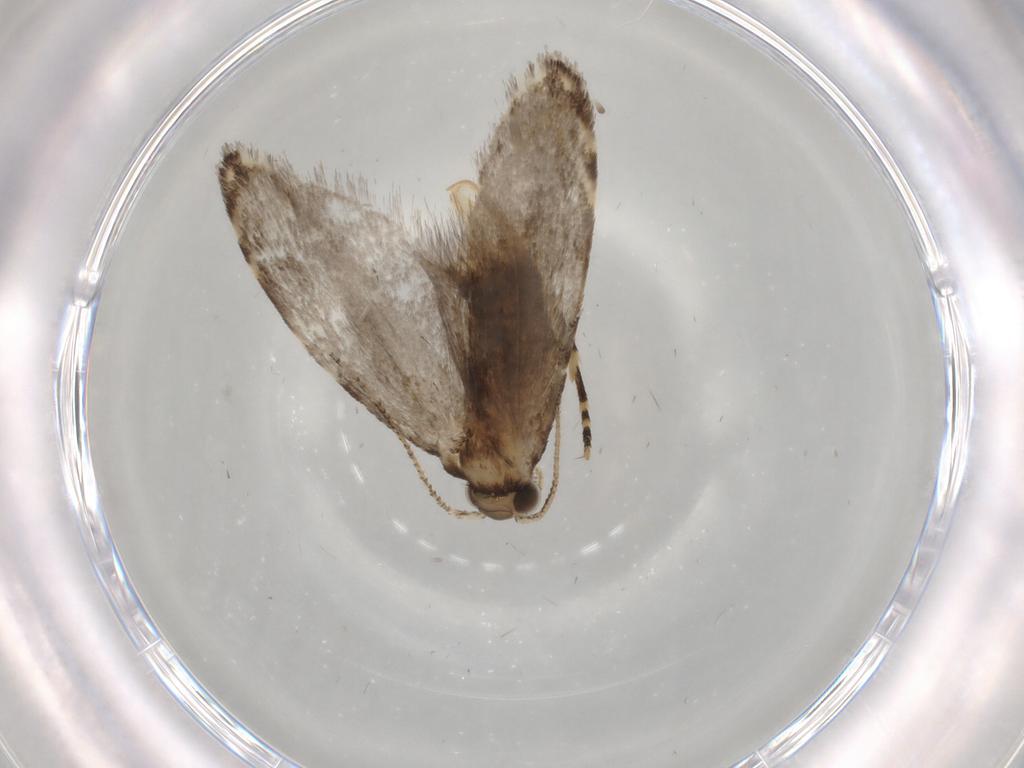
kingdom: Animalia
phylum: Arthropoda
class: Insecta
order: Lepidoptera
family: Tineidae
